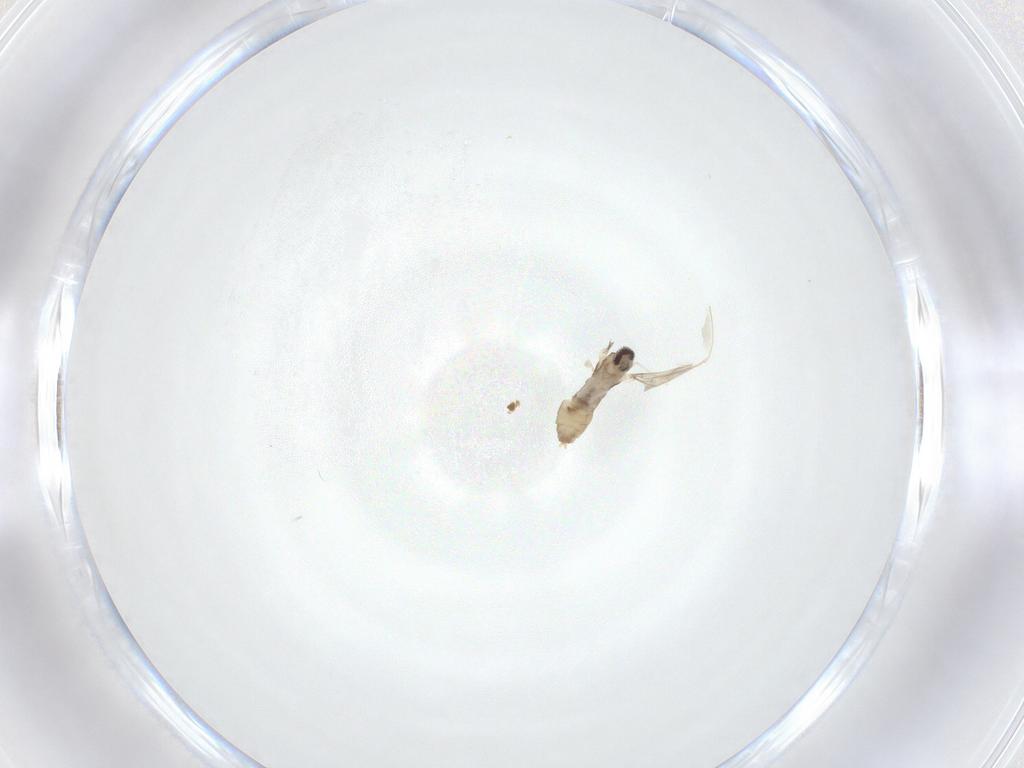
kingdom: Animalia
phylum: Arthropoda
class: Insecta
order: Diptera
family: Cecidomyiidae
